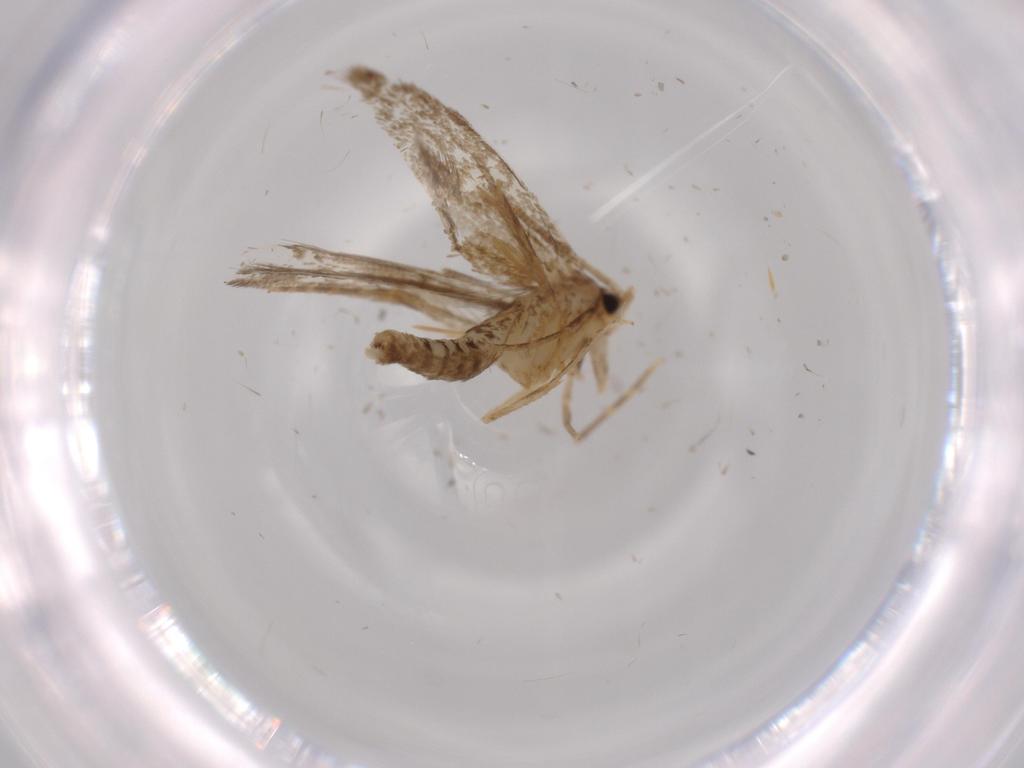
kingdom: Animalia
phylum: Arthropoda
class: Insecta
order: Lepidoptera
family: Tineidae
